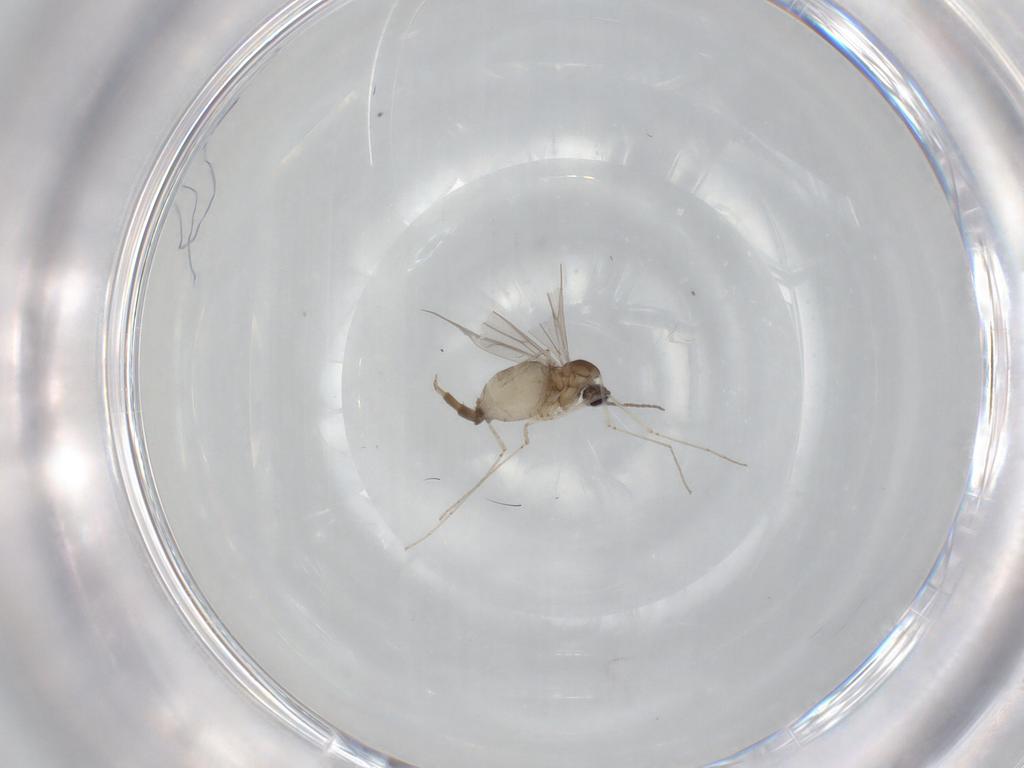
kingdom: Animalia
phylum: Arthropoda
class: Insecta
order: Diptera
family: Cecidomyiidae
